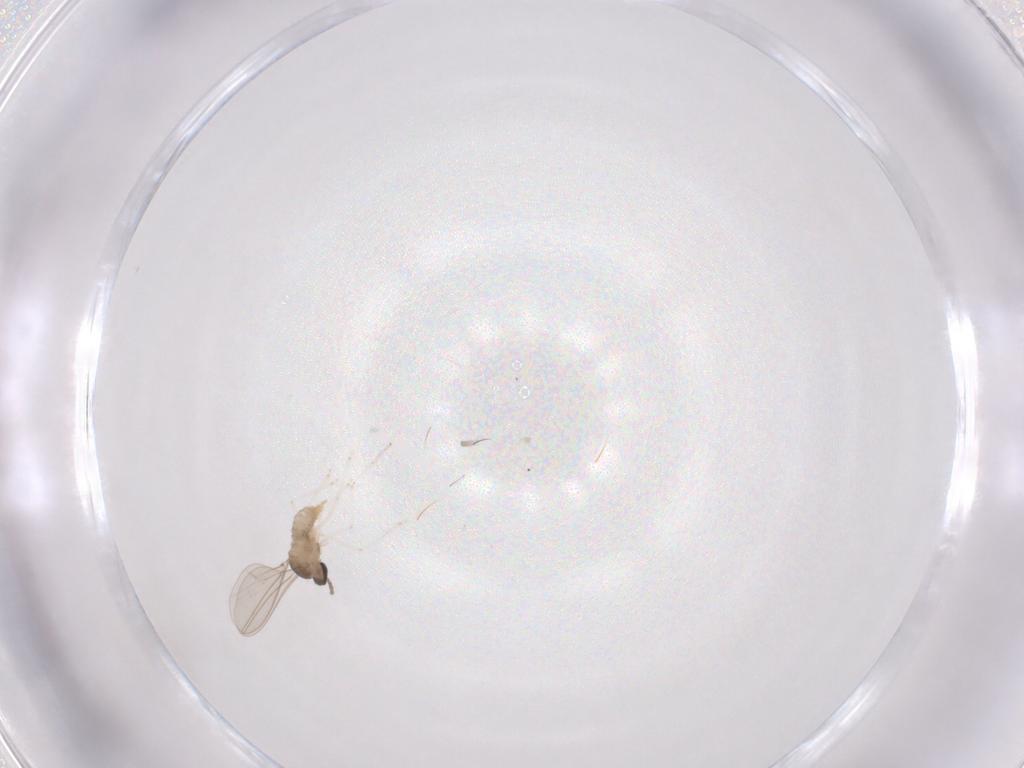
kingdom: Animalia
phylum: Arthropoda
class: Insecta
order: Diptera
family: Cecidomyiidae
